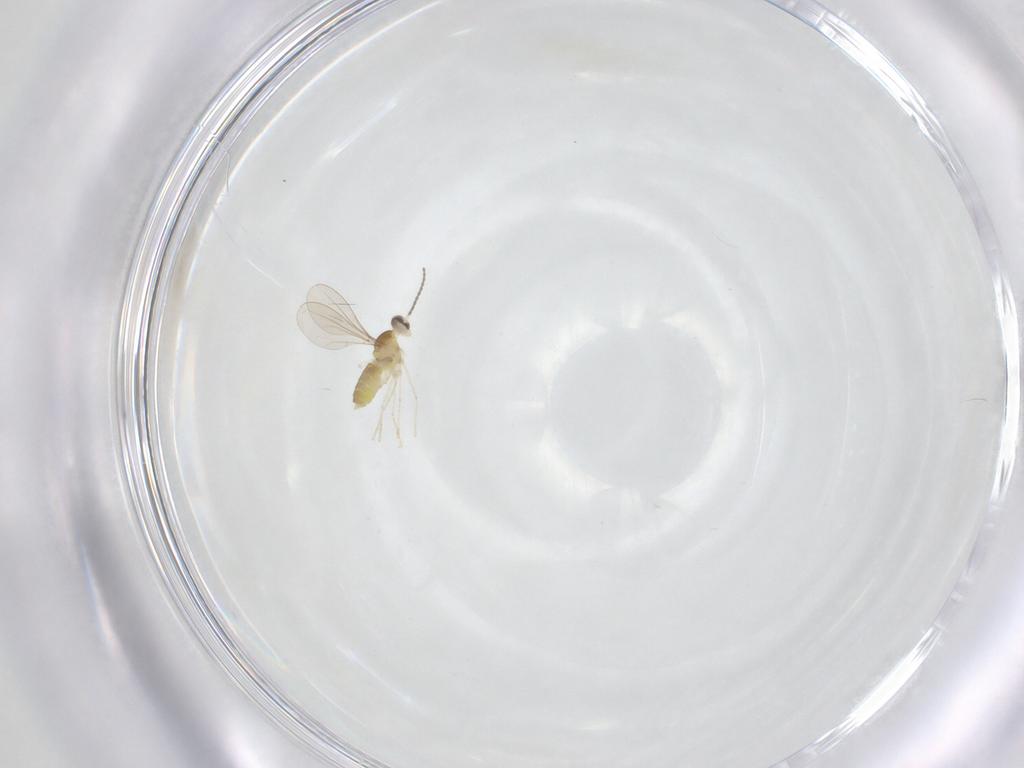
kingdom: Animalia
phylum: Arthropoda
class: Insecta
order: Diptera
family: Cecidomyiidae
